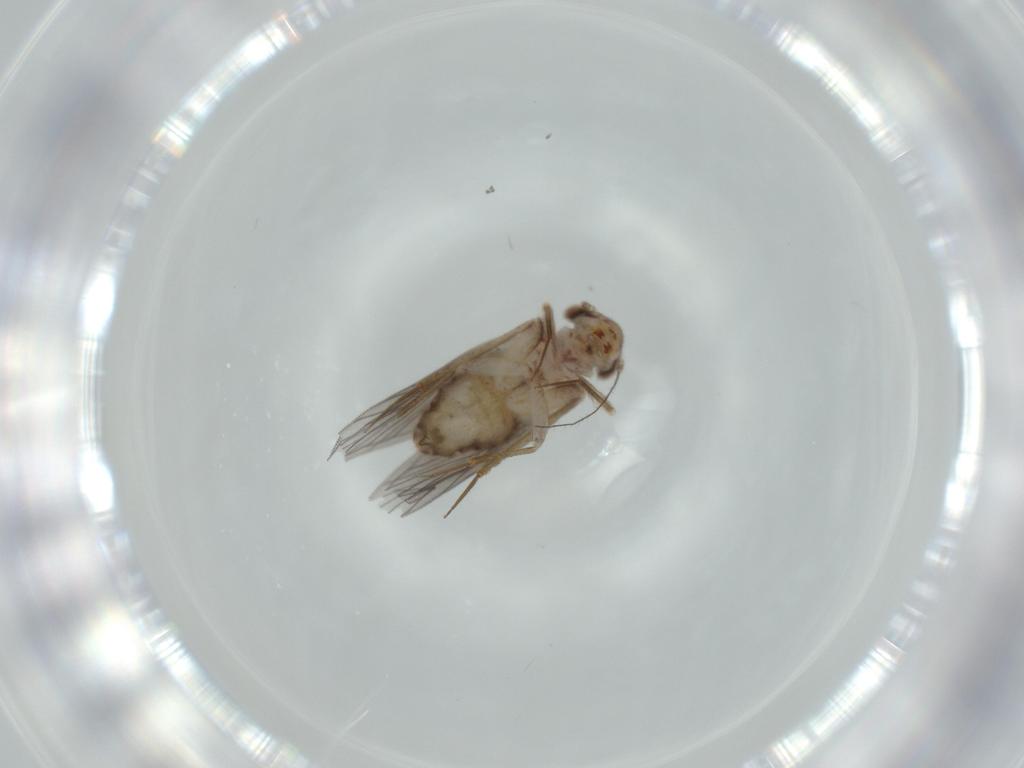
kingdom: Animalia
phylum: Arthropoda
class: Insecta
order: Psocodea
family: Lepidopsocidae
